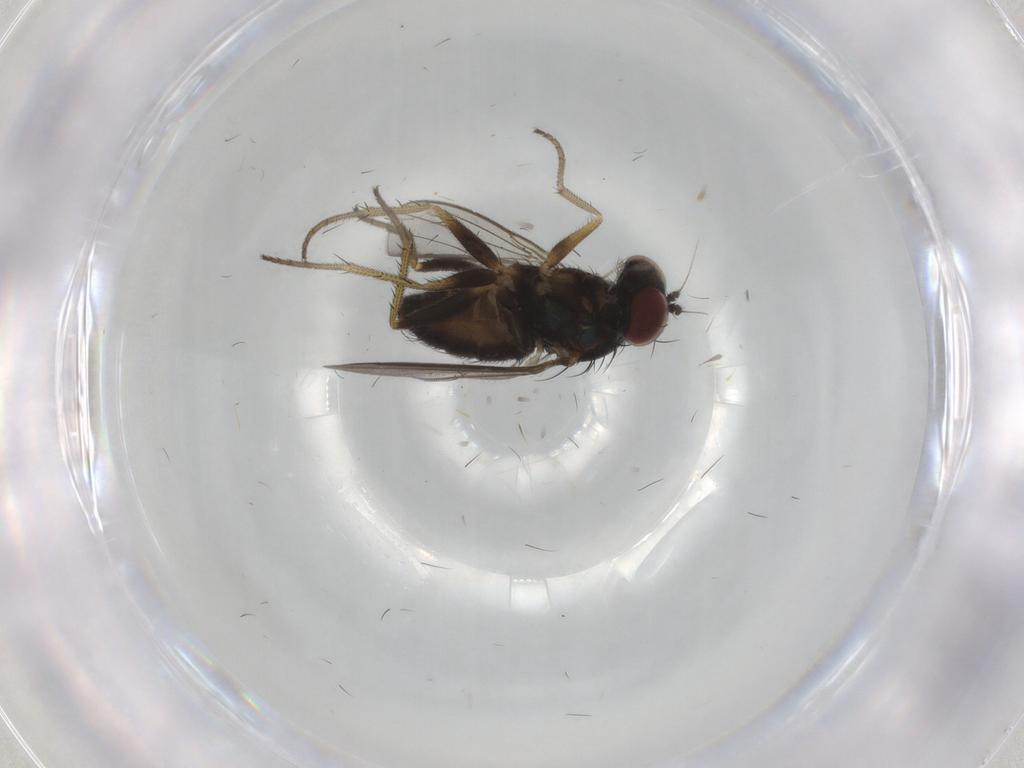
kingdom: Animalia
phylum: Arthropoda
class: Insecta
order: Diptera
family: Cecidomyiidae
